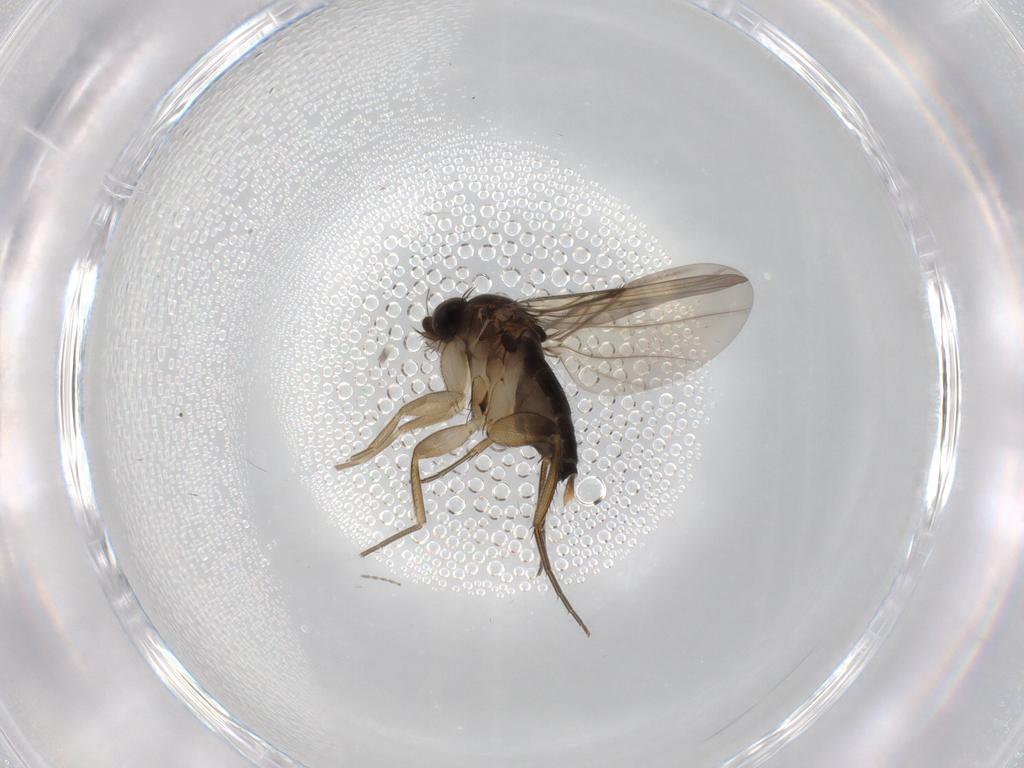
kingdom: Animalia
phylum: Arthropoda
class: Insecta
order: Diptera
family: Phoridae
